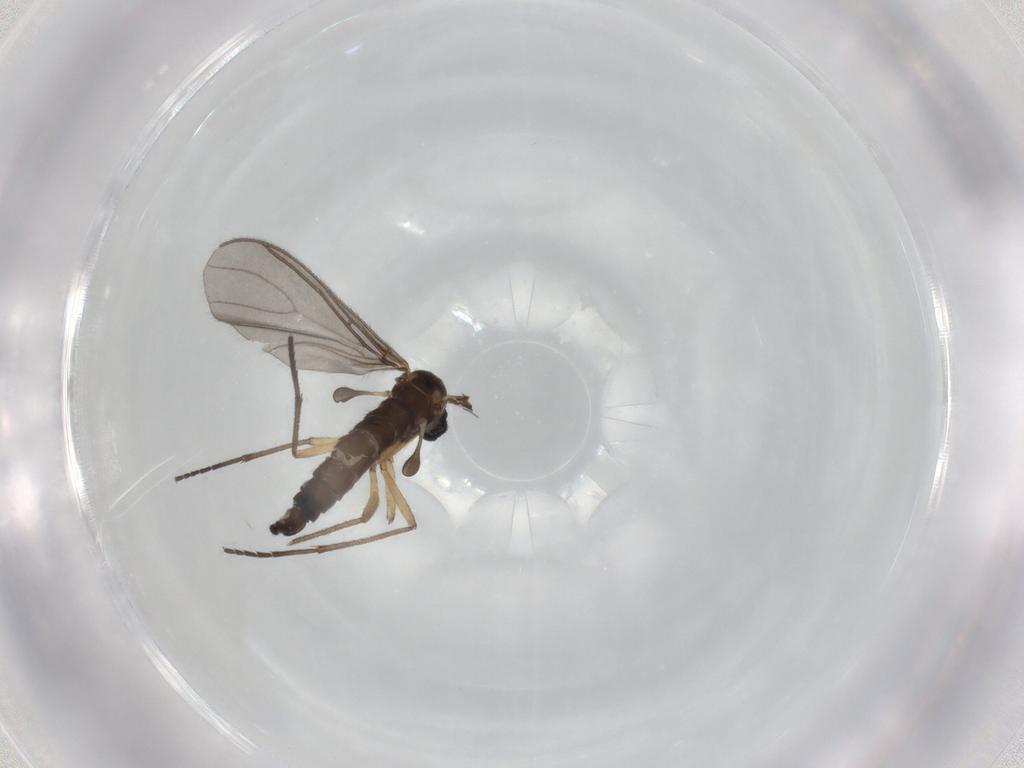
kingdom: Animalia
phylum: Arthropoda
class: Insecta
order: Diptera
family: Sciaridae
